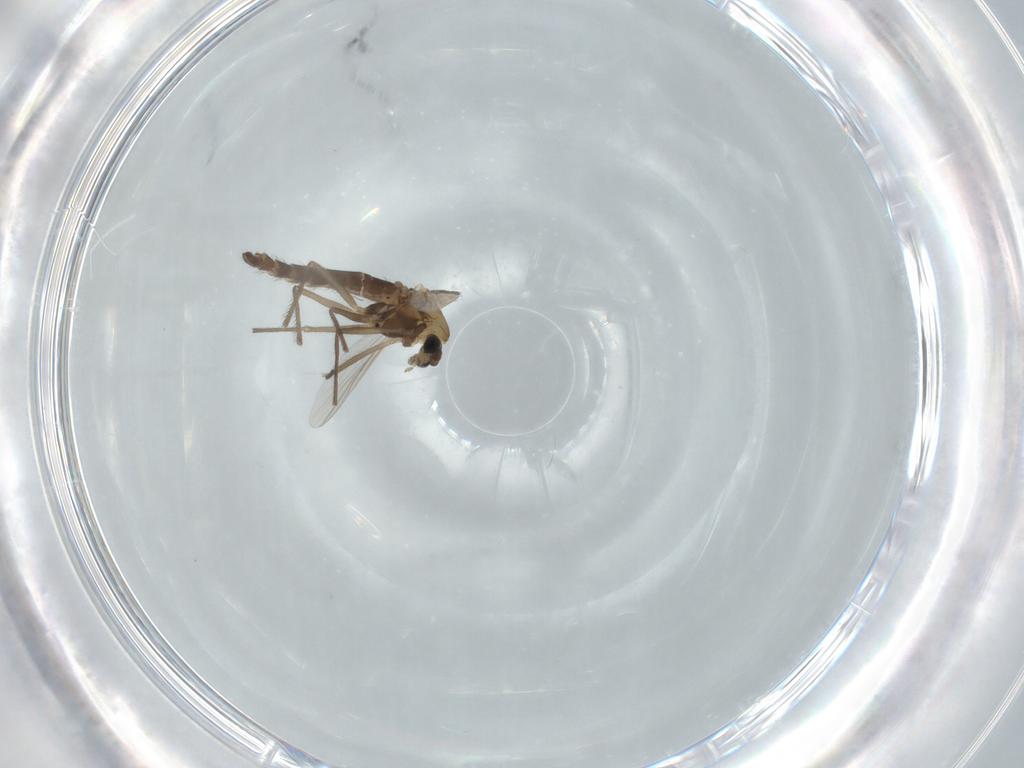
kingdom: Animalia
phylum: Arthropoda
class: Insecta
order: Diptera
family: Chironomidae
